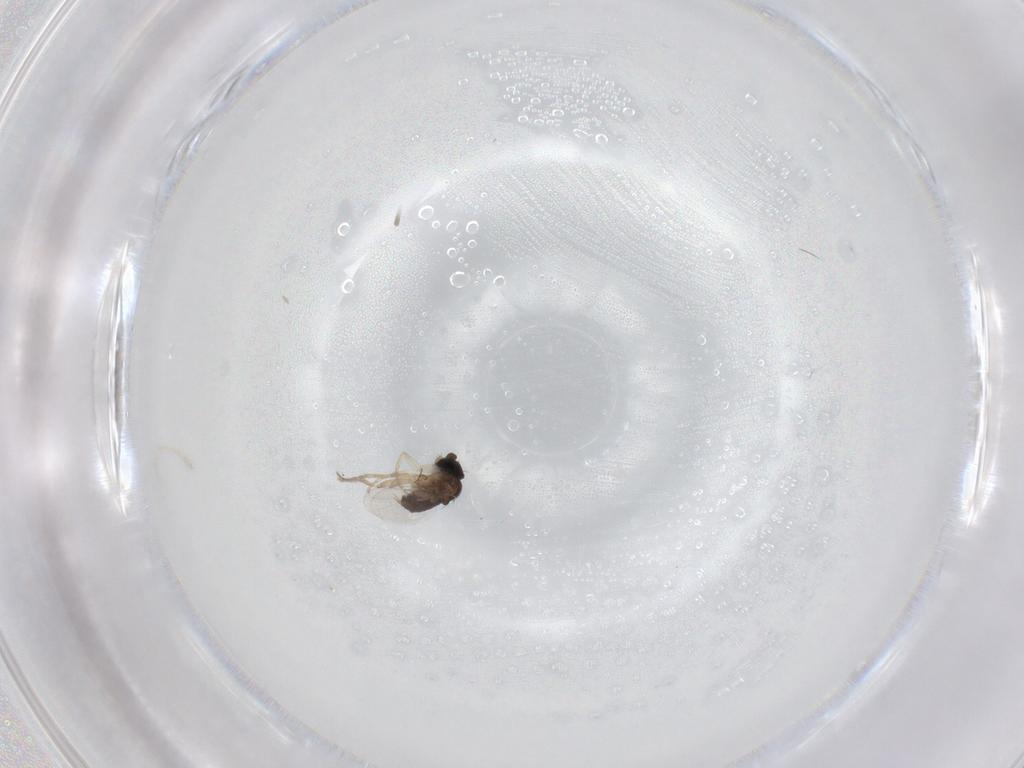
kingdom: Animalia
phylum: Arthropoda
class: Insecta
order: Diptera
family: Phoridae
